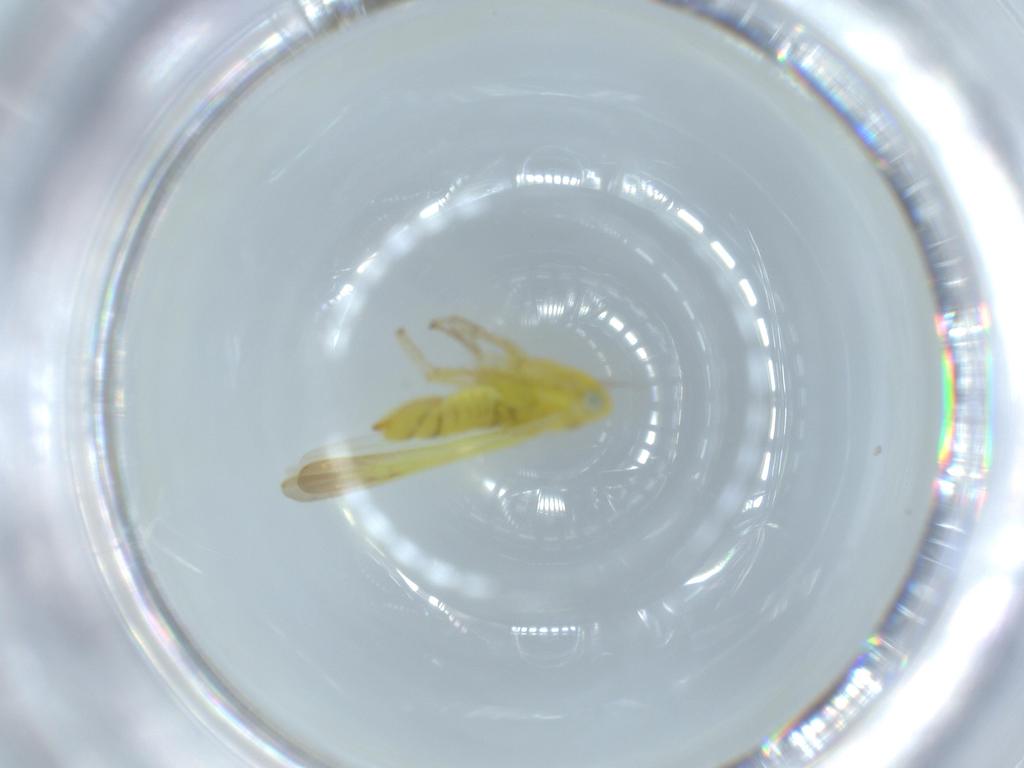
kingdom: Animalia
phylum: Arthropoda
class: Insecta
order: Hemiptera
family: Cicadellidae
